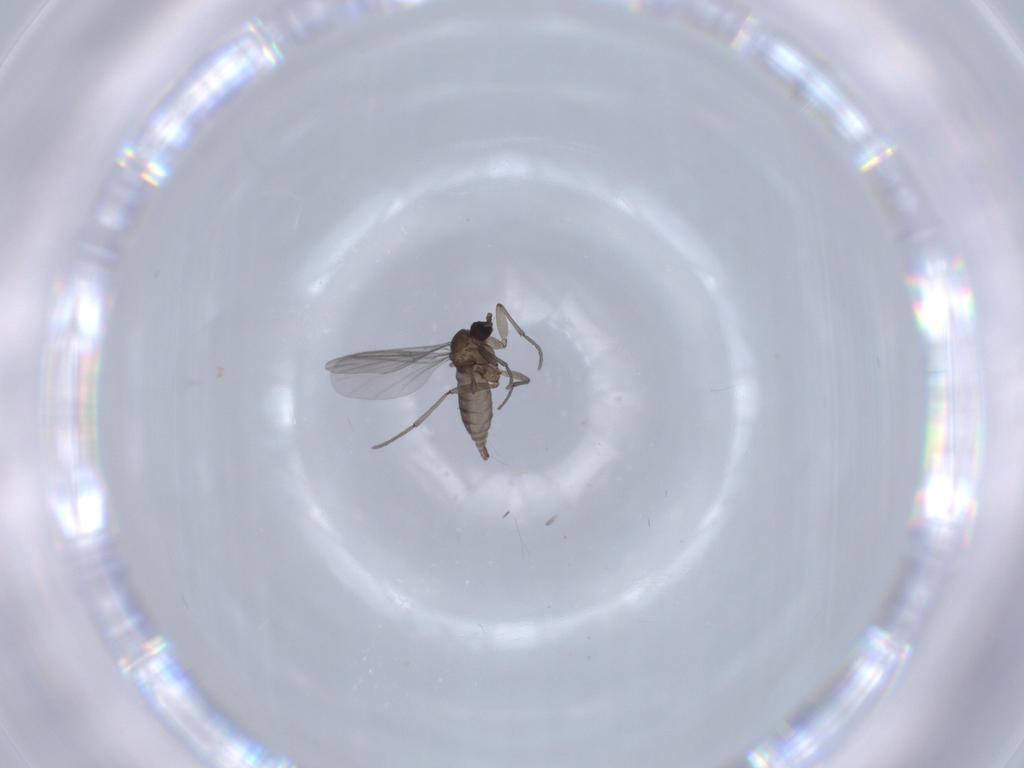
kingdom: Animalia
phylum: Arthropoda
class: Insecta
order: Diptera
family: Sciaridae
